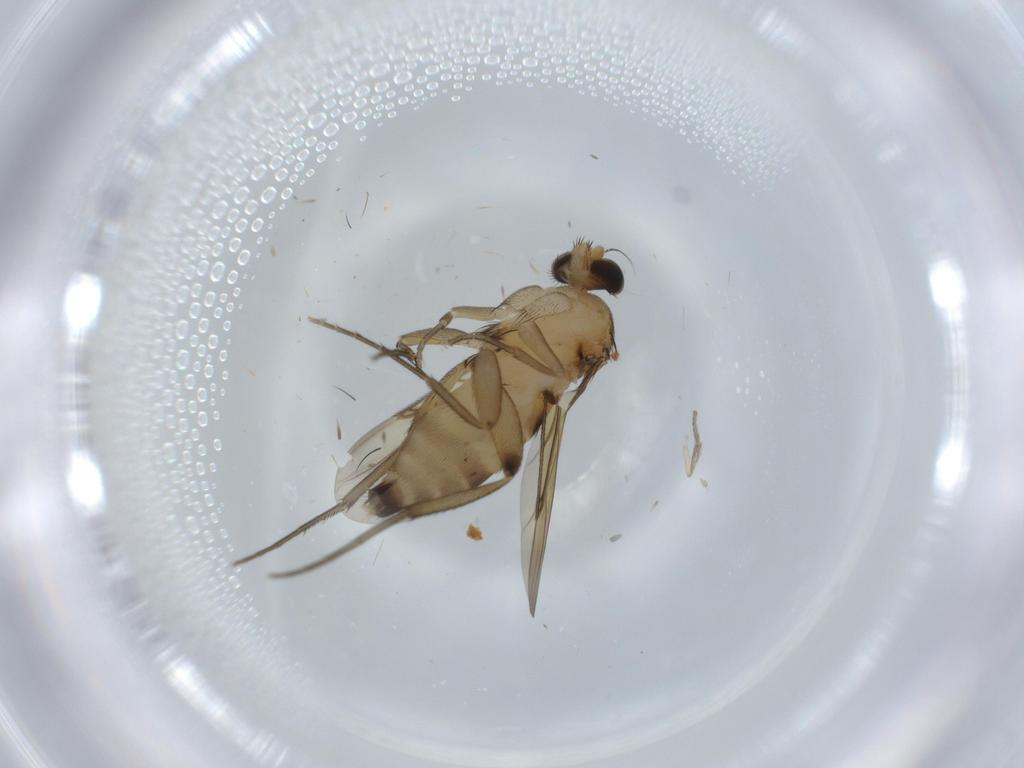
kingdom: Animalia
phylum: Arthropoda
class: Insecta
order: Diptera
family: Phoridae
